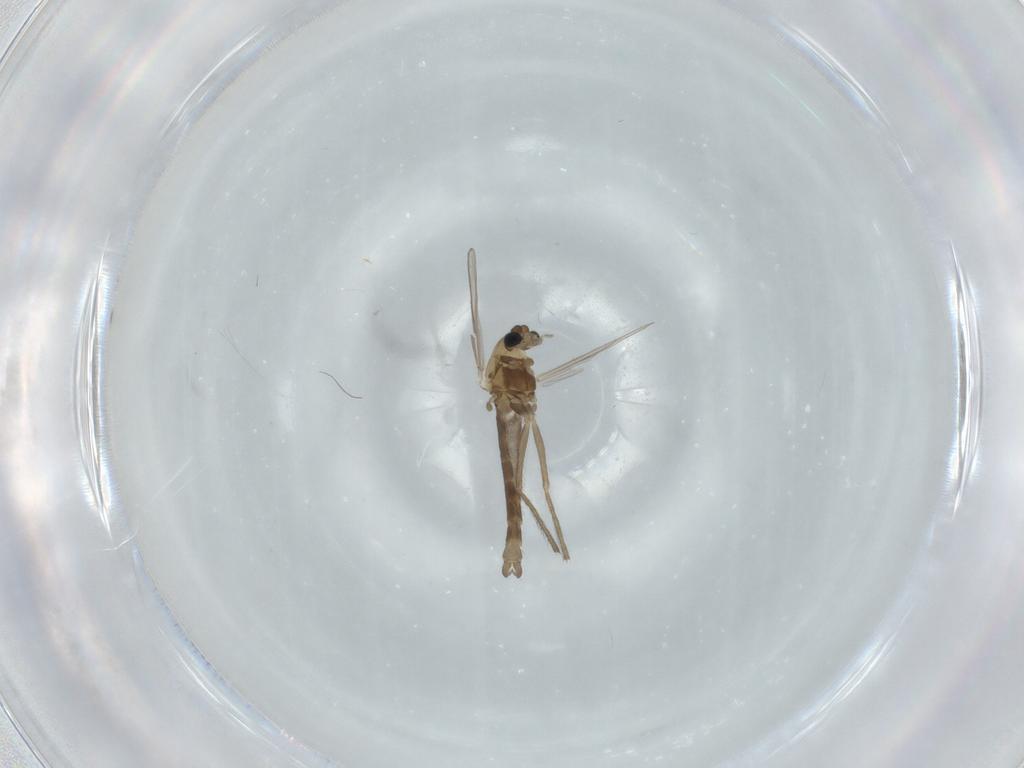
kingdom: Animalia
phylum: Arthropoda
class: Insecta
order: Diptera
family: Chironomidae
